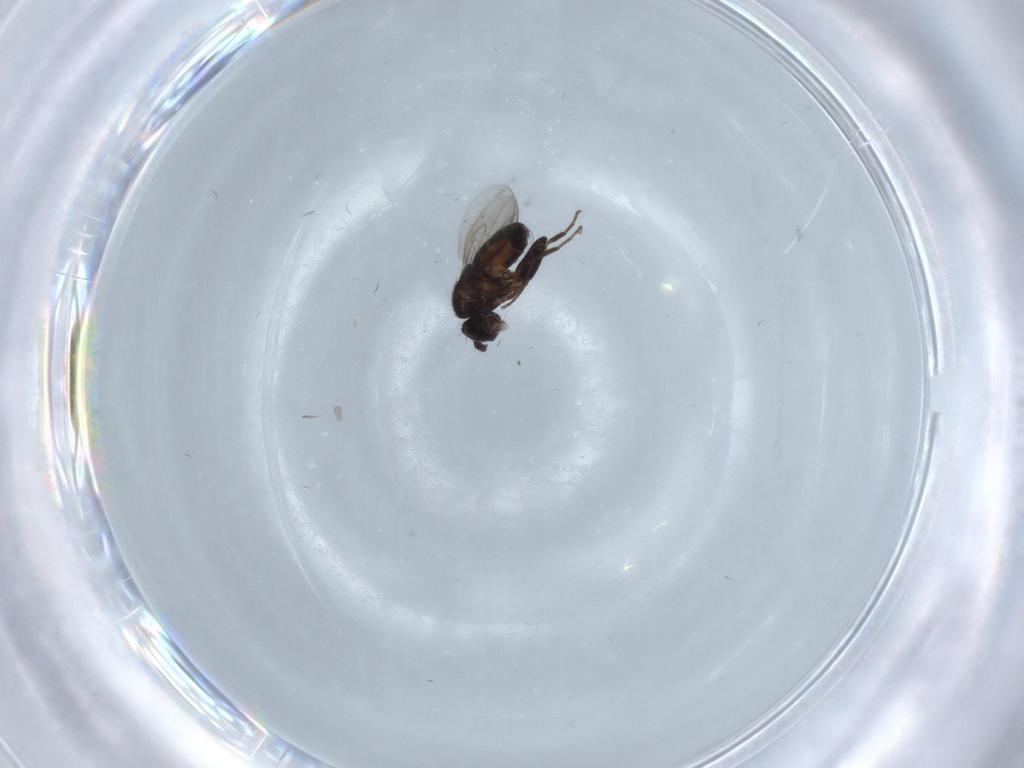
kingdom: Animalia
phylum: Arthropoda
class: Insecta
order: Diptera
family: Sphaeroceridae
